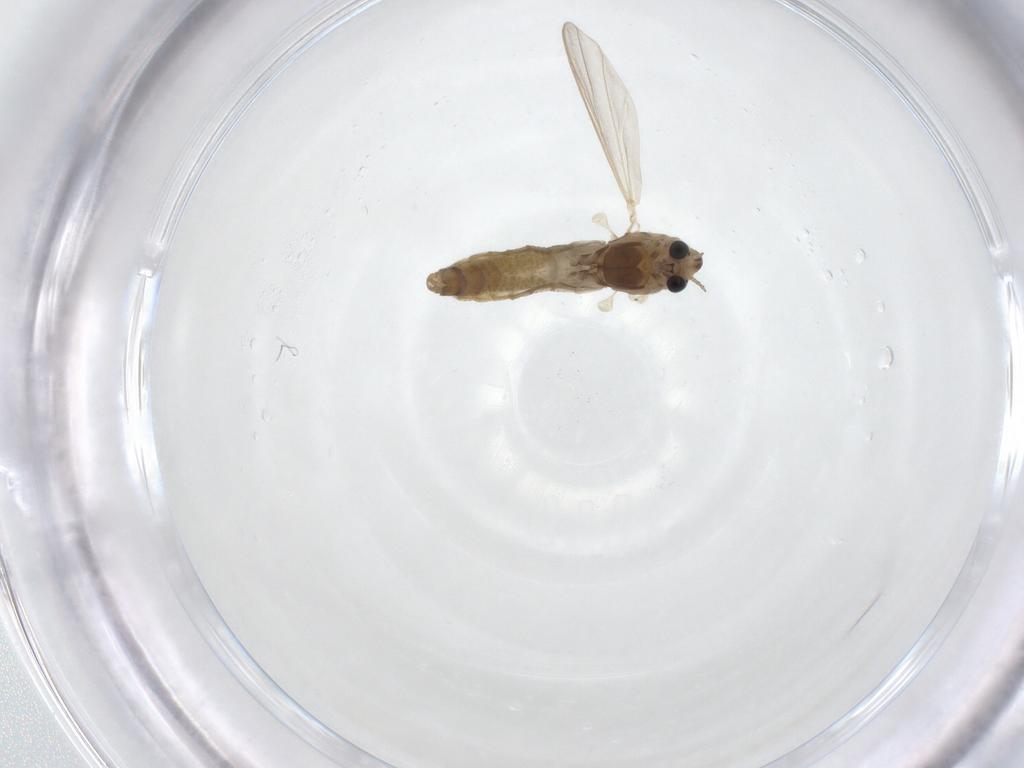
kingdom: Animalia
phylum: Arthropoda
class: Insecta
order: Diptera
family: Chironomidae
